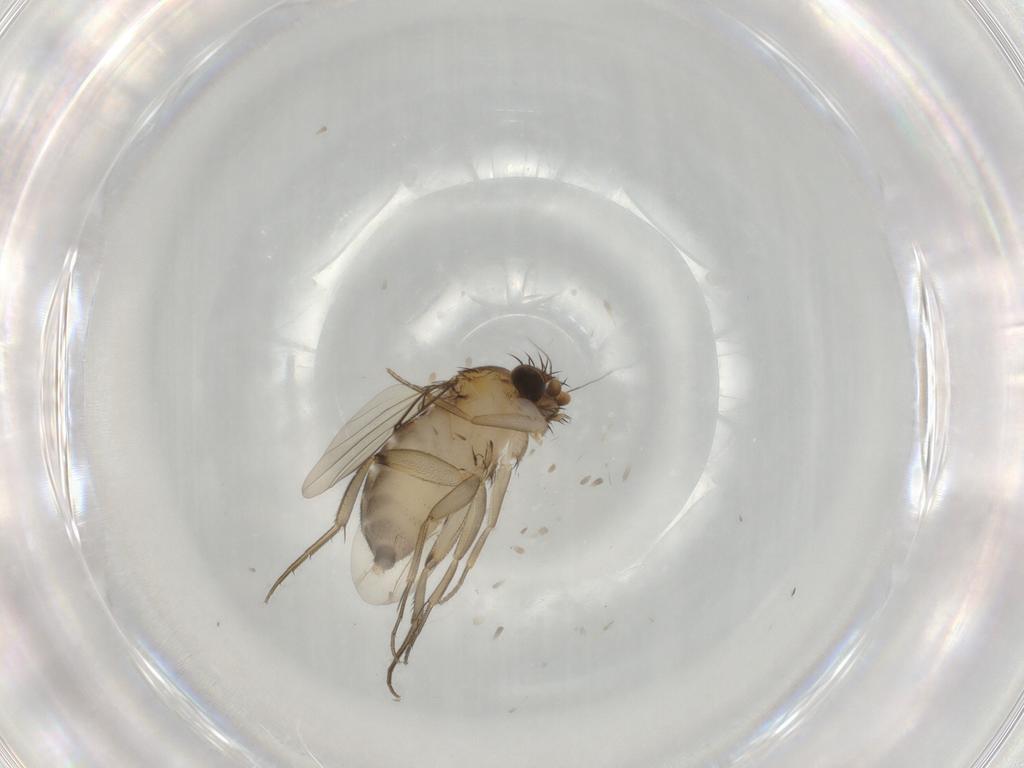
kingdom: Animalia
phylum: Arthropoda
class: Insecta
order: Diptera
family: Phoridae
